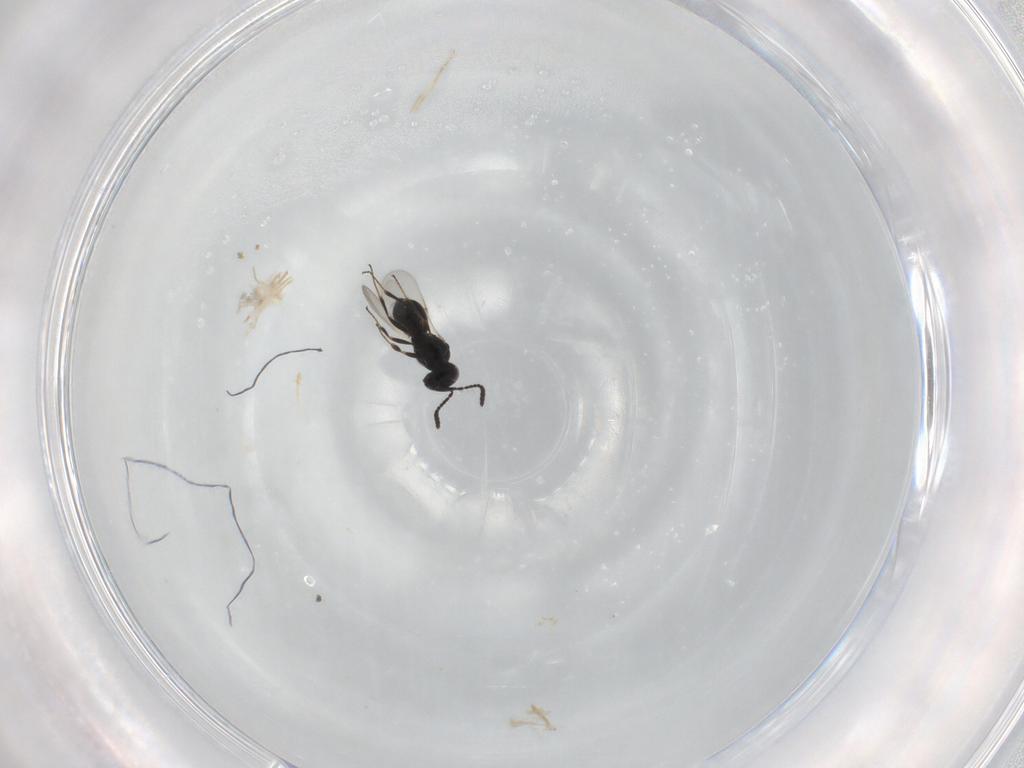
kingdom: Animalia
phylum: Arthropoda
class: Insecta
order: Hymenoptera
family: Scelionidae
